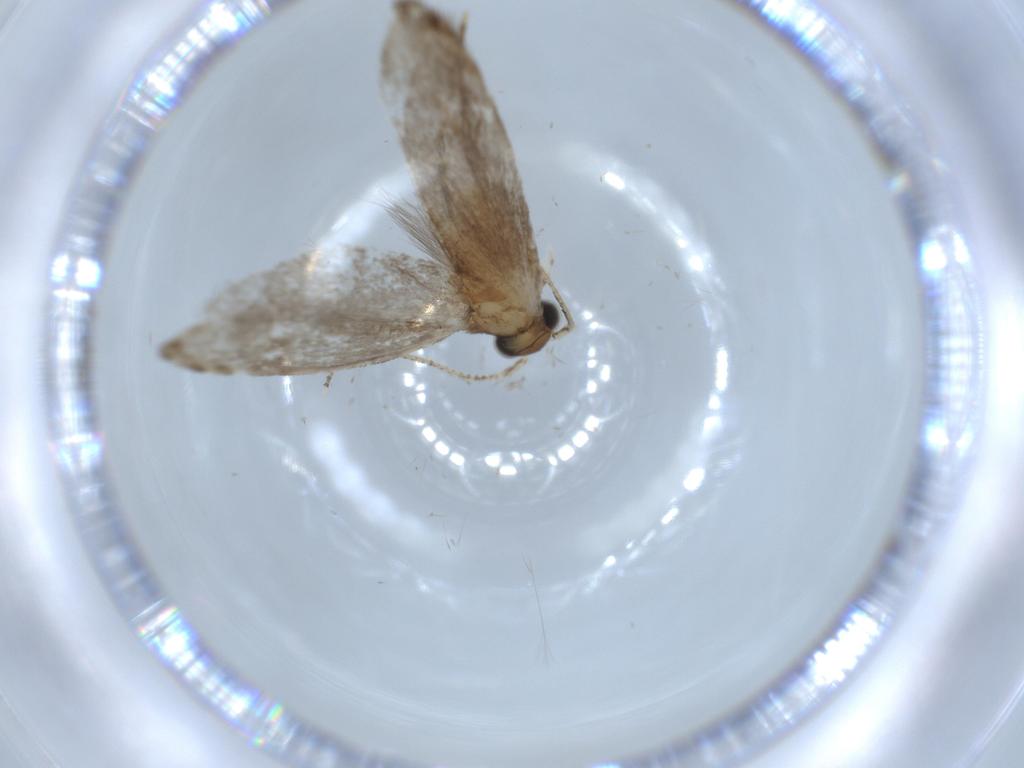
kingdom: Animalia
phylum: Arthropoda
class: Insecta
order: Lepidoptera
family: Tineidae
